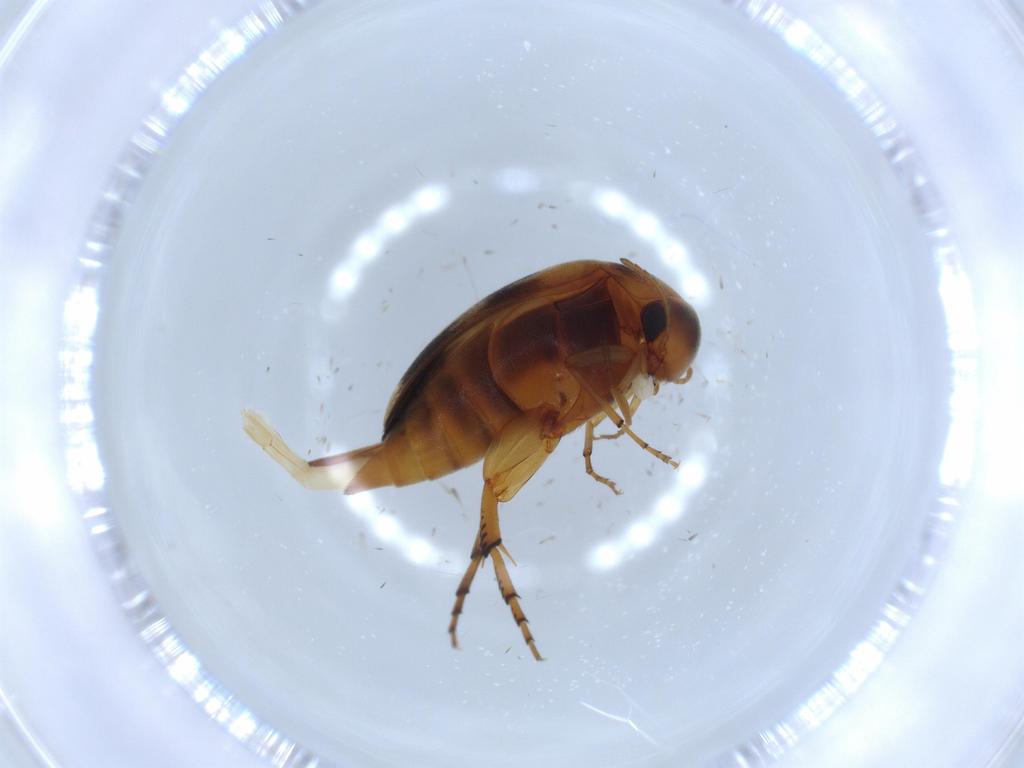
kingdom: Animalia
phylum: Arthropoda
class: Insecta
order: Coleoptera
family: Mordellidae
